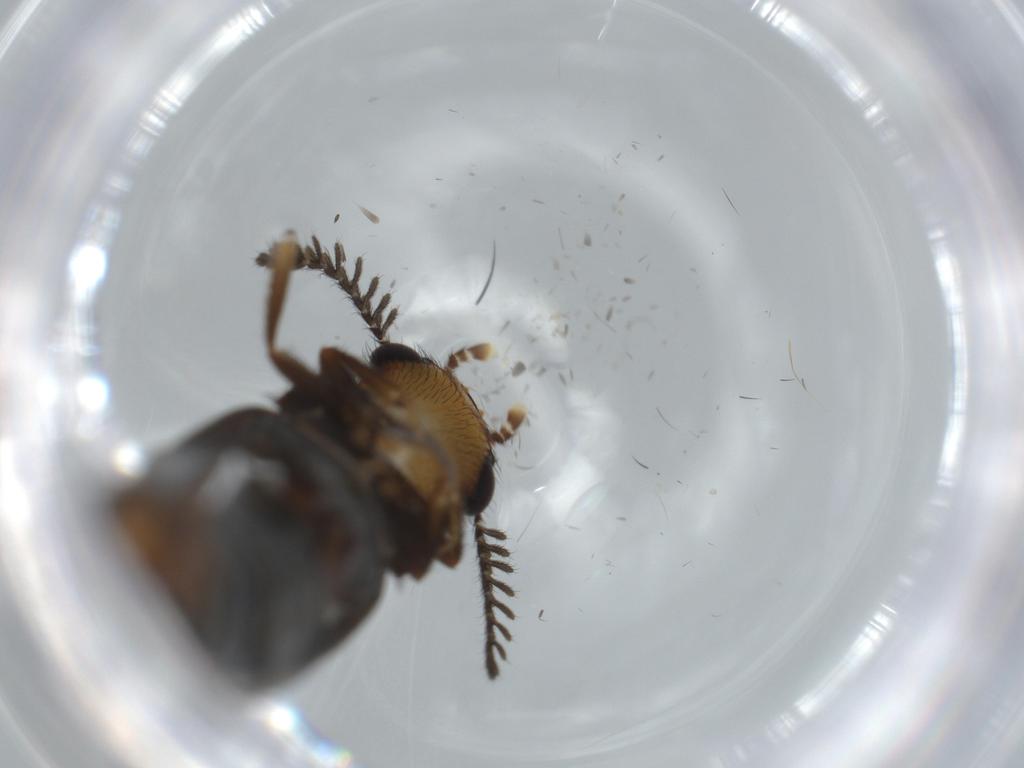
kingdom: Animalia
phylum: Arthropoda
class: Insecta
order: Coleoptera
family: Phengodidae
